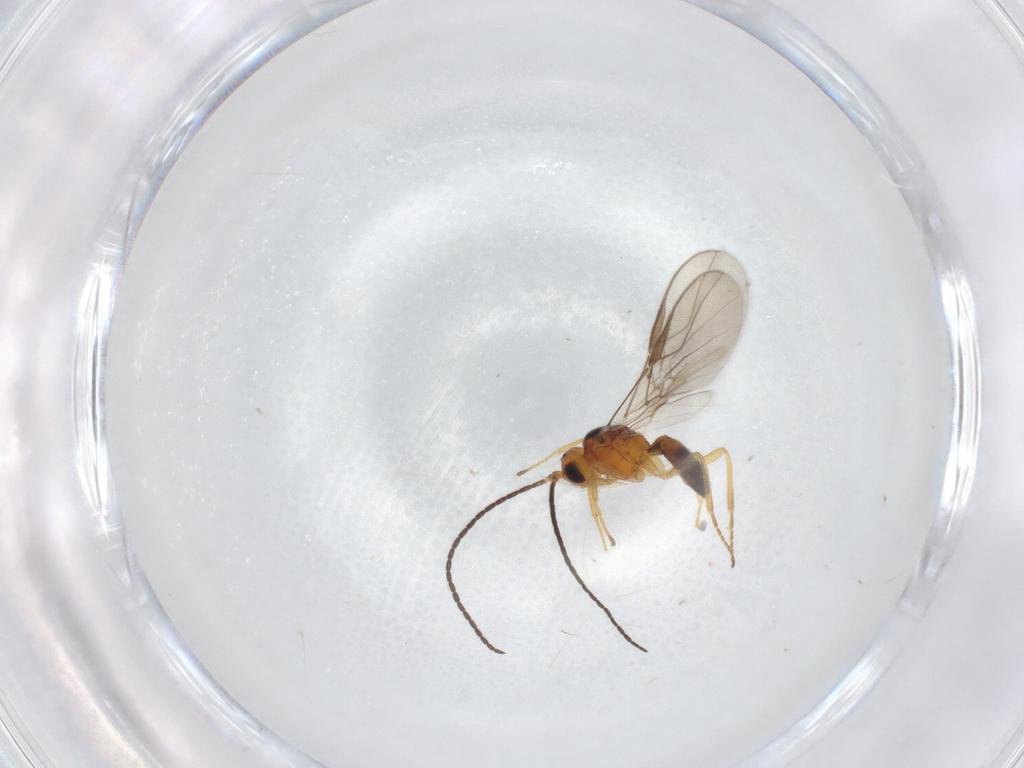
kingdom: Animalia
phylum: Arthropoda
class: Insecta
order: Hymenoptera
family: Braconidae
